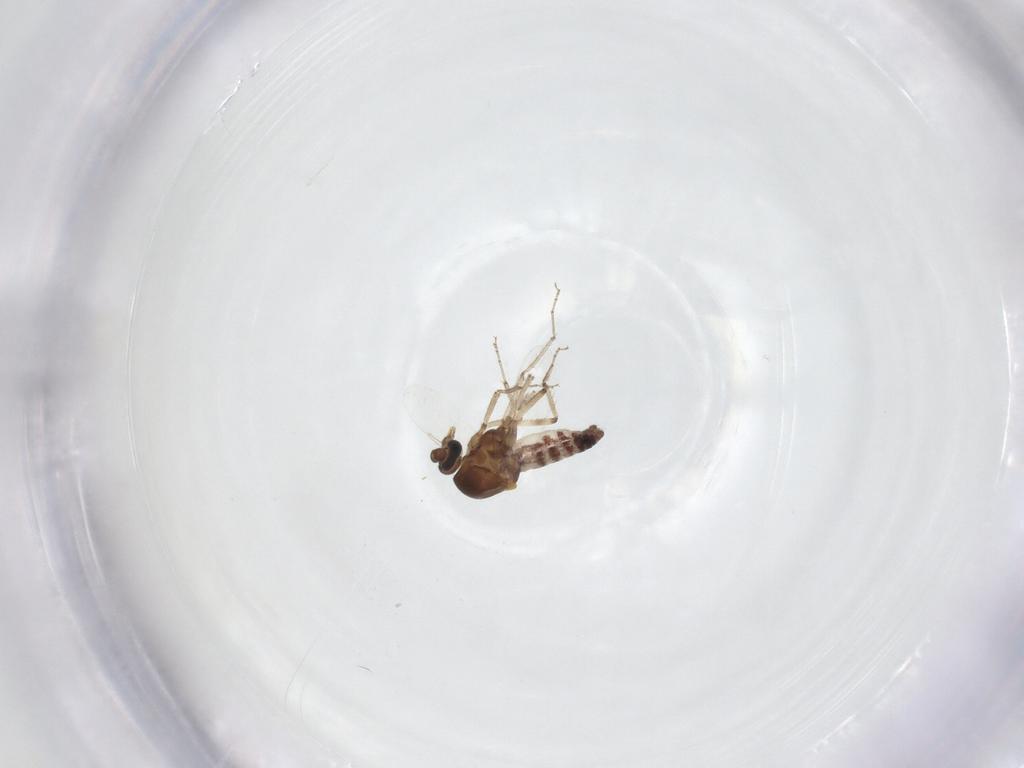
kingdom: Animalia
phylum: Arthropoda
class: Insecta
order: Diptera
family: Ceratopogonidae
